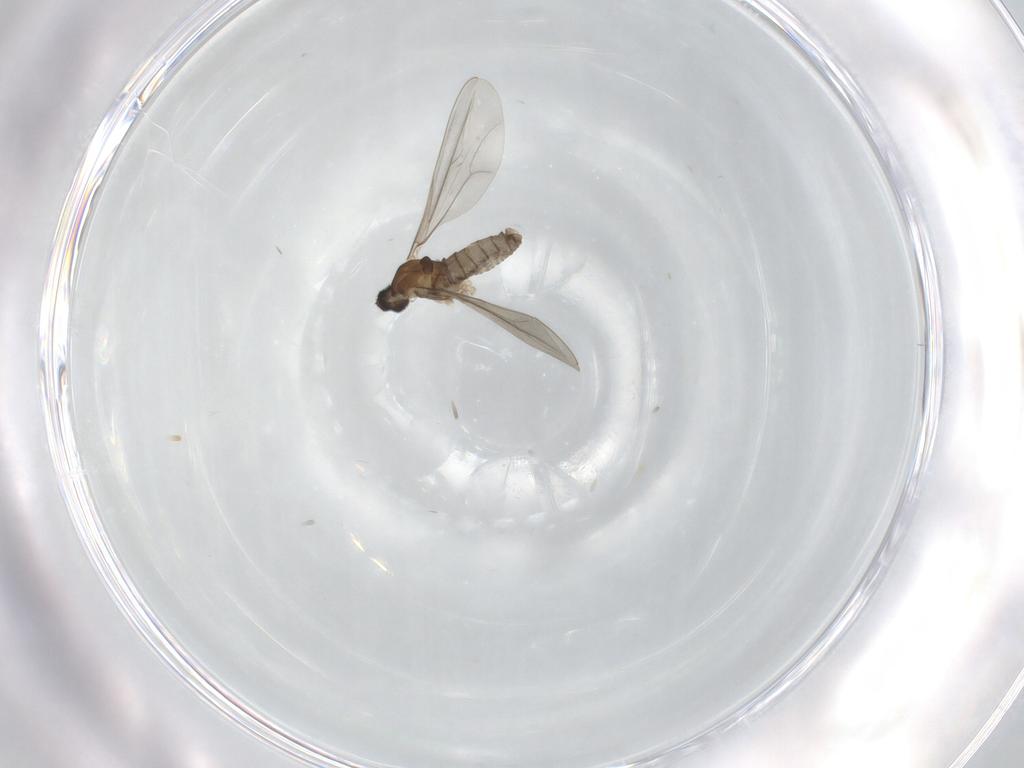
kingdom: Animalia
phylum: Arthropoda
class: Insecta
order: Diptera
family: Cecidomyiidae
